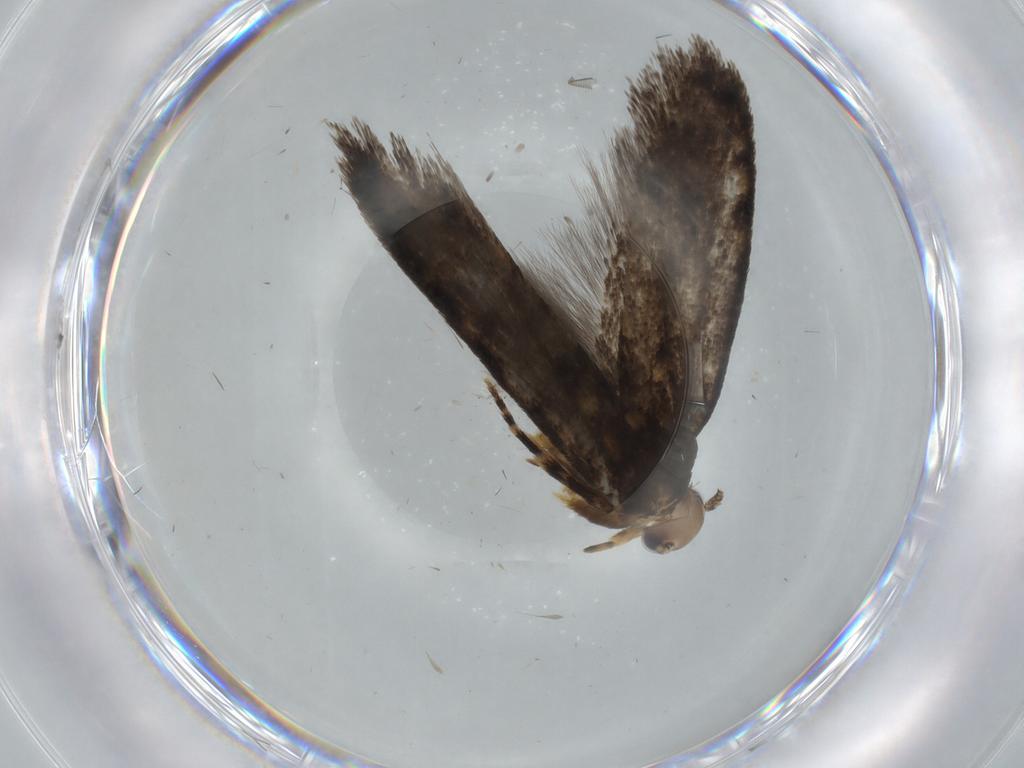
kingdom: Animalia
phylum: Arthropoda
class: Insecta
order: Lepidoptera
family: Tineidae
